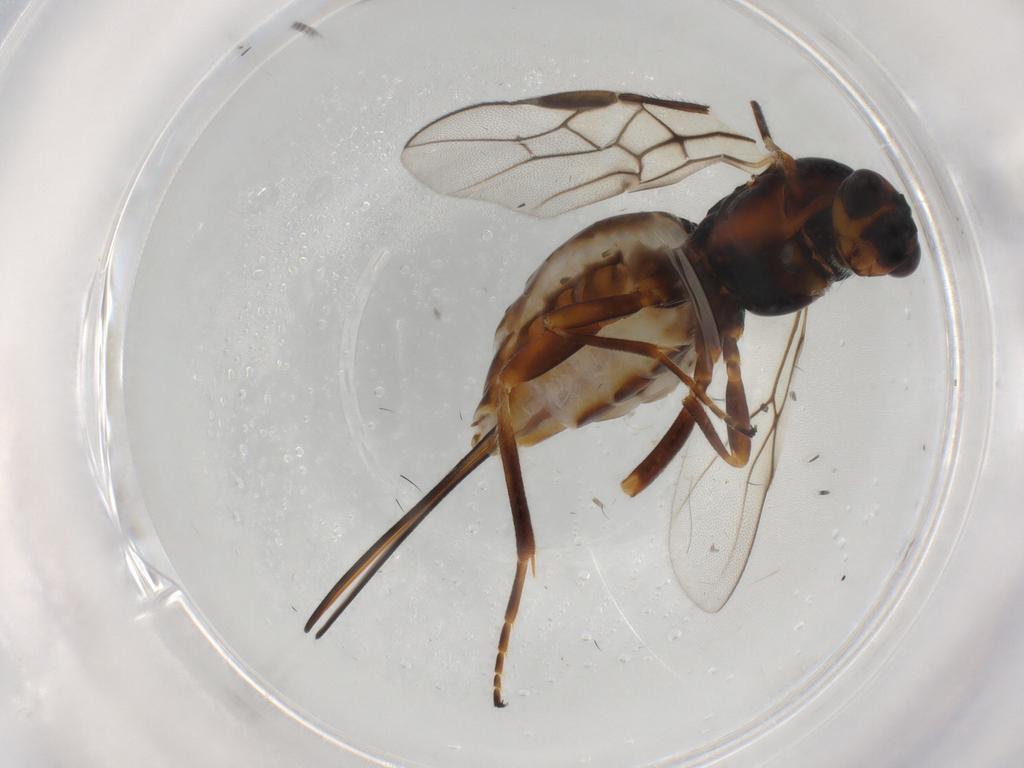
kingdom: Animalia
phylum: Arthropoda
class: Insecta
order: Hymenoptera
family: Braconidae
